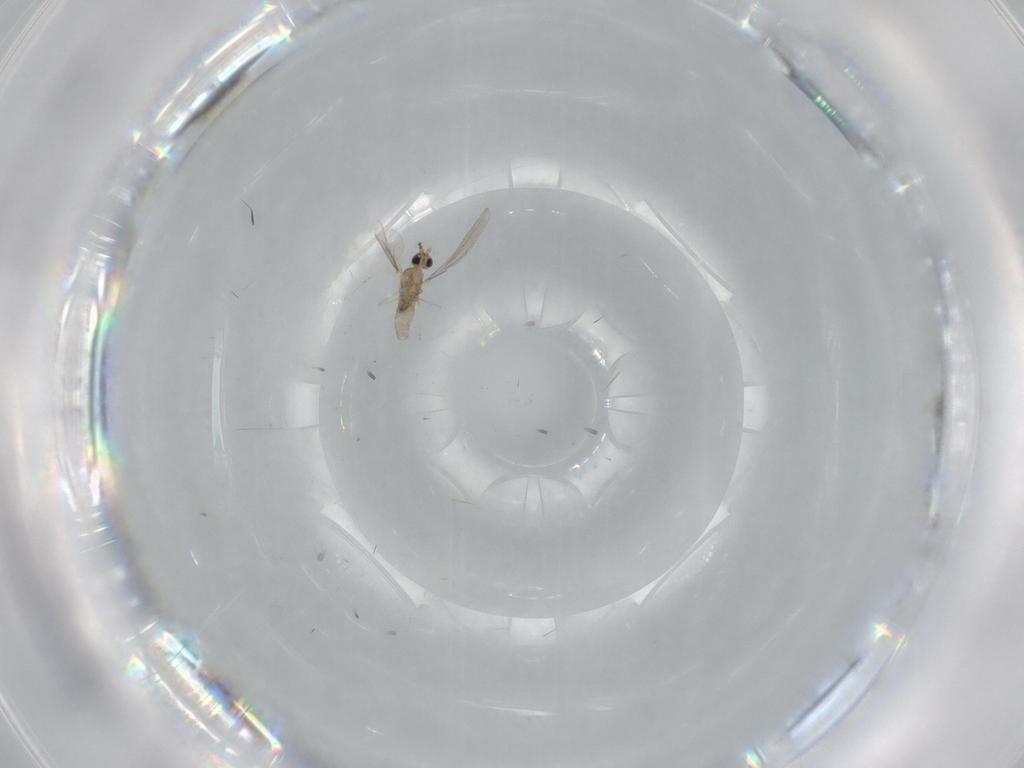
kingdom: Animalia
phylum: Arthropoda
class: Insecta
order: Diptera
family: Cecidomyiidae
